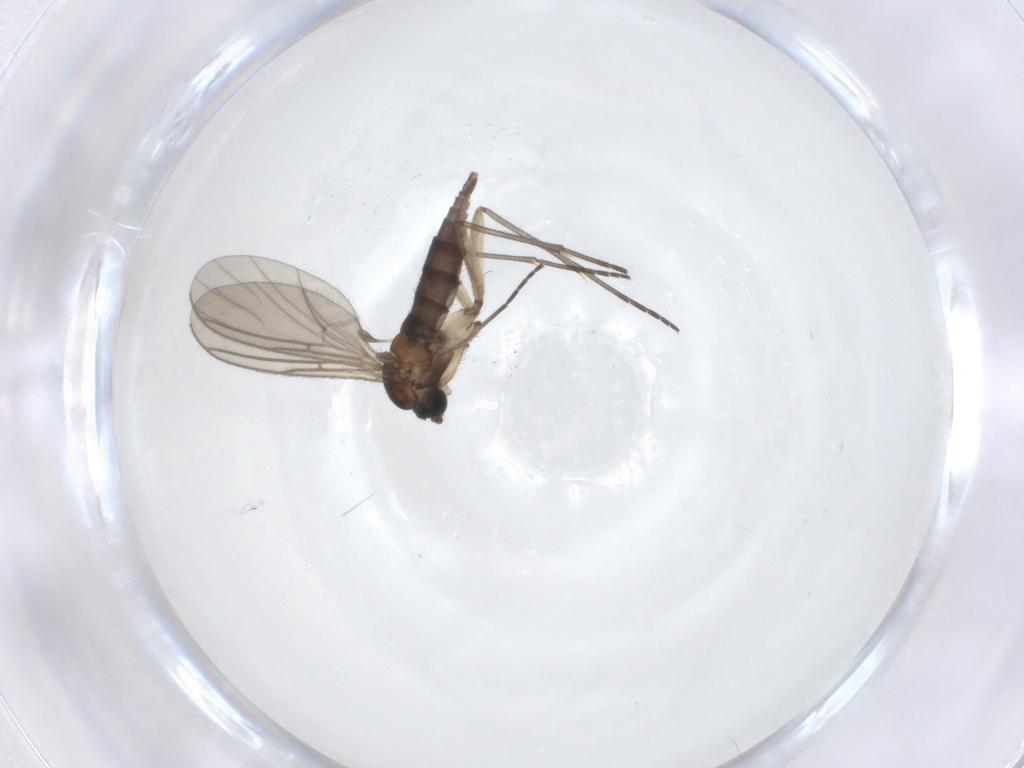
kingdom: Animalia
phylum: Arthropoda
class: Insecta
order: Diptera
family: Sciaridae
